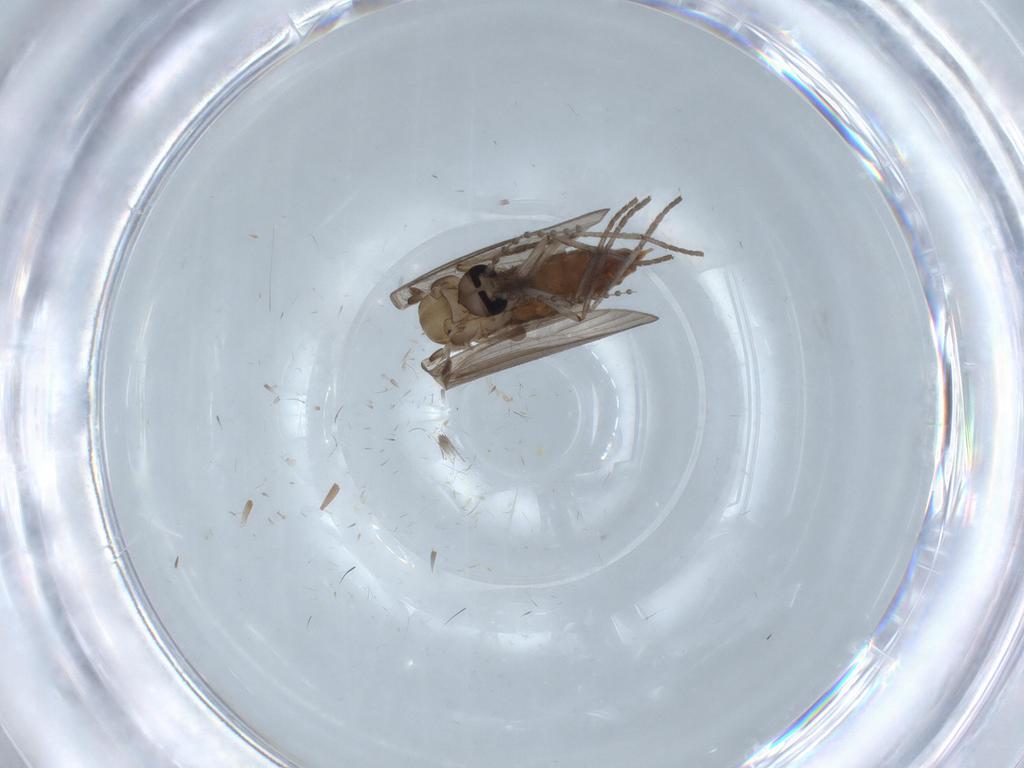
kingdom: Animalia
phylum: Arthropoda
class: Insecta
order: Diptera
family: Psychodidae
